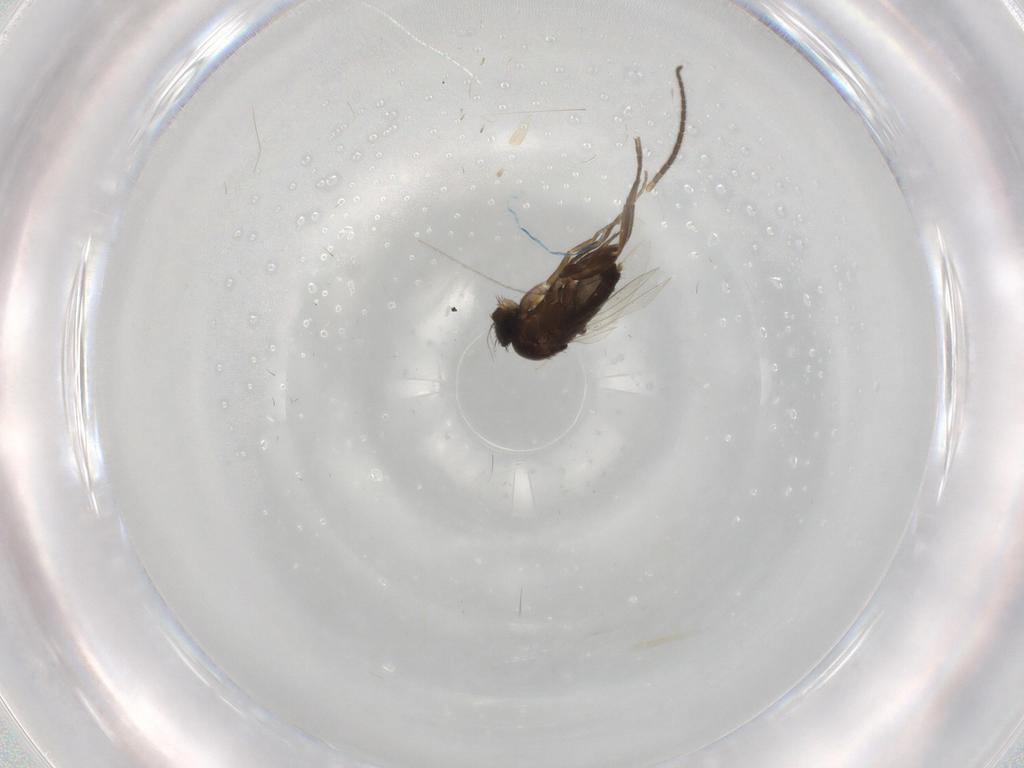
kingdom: Animalia
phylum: Arthropoda
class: Insecta
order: Diptera
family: Phoridae
